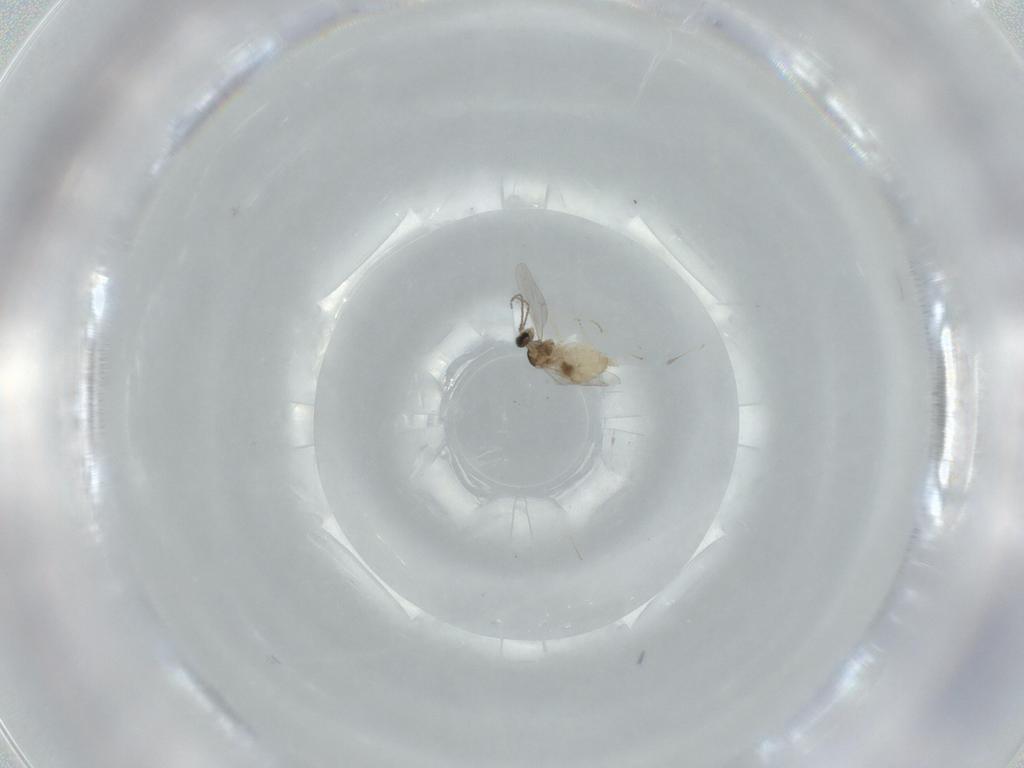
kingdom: Animalia
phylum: Arthropoda
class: Insecta
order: Diptera
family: Cecidomyiidae
